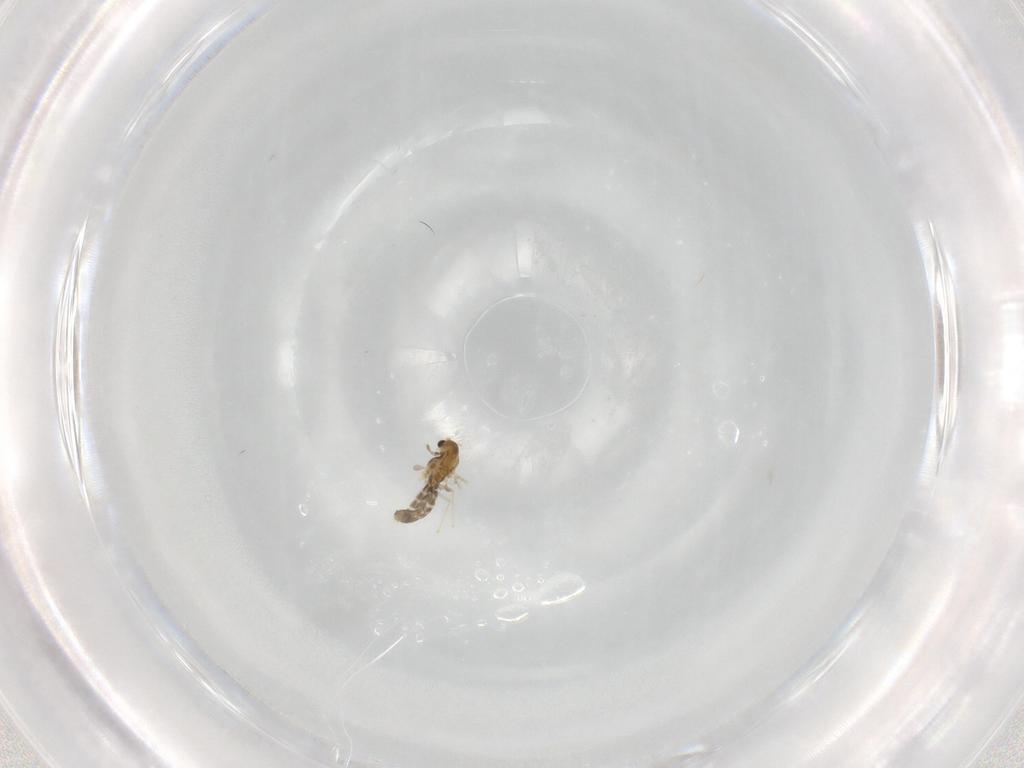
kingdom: Animalia
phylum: Arthropoda
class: Insecta
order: Diptera
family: Chironomidae
